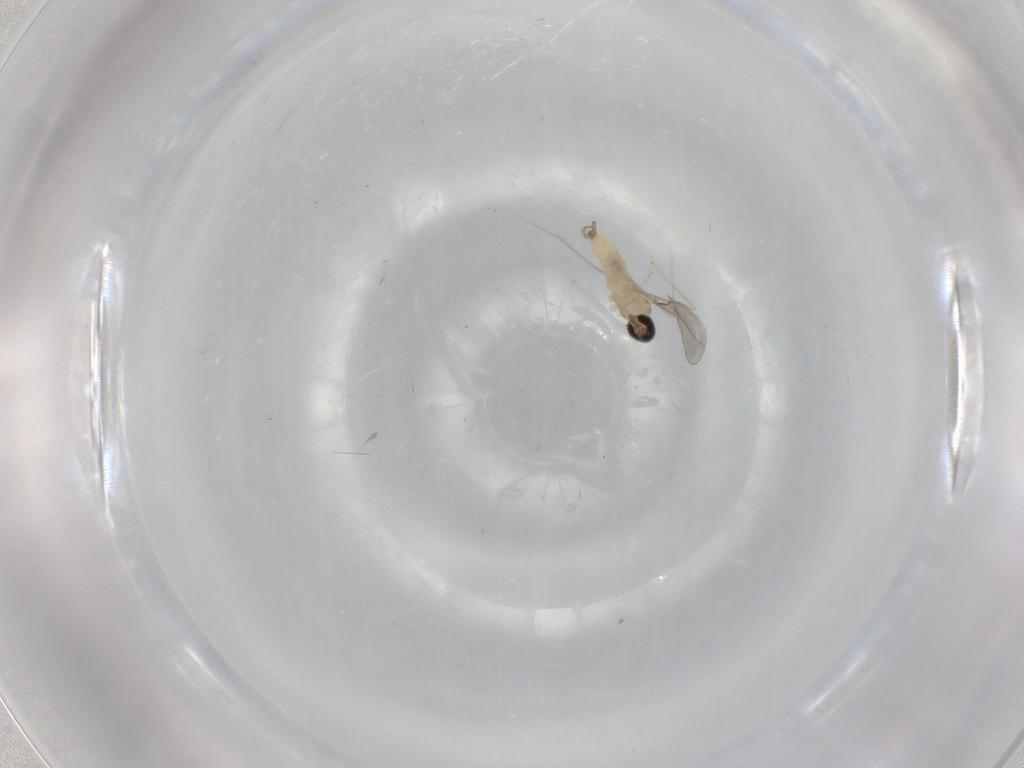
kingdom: Animalia
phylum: Arthropoda
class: Insecta
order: Diptera
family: Cecidomyiidae
